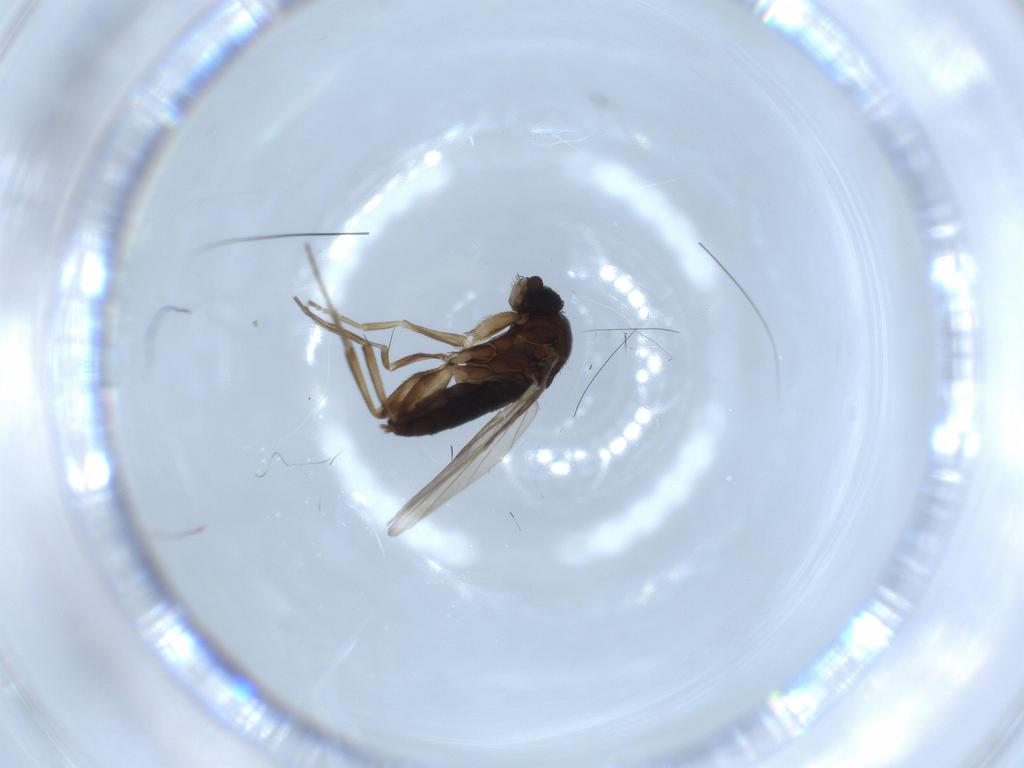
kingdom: Animalia
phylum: Arthropoda
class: Insecta
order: Diptera
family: Phoridae
